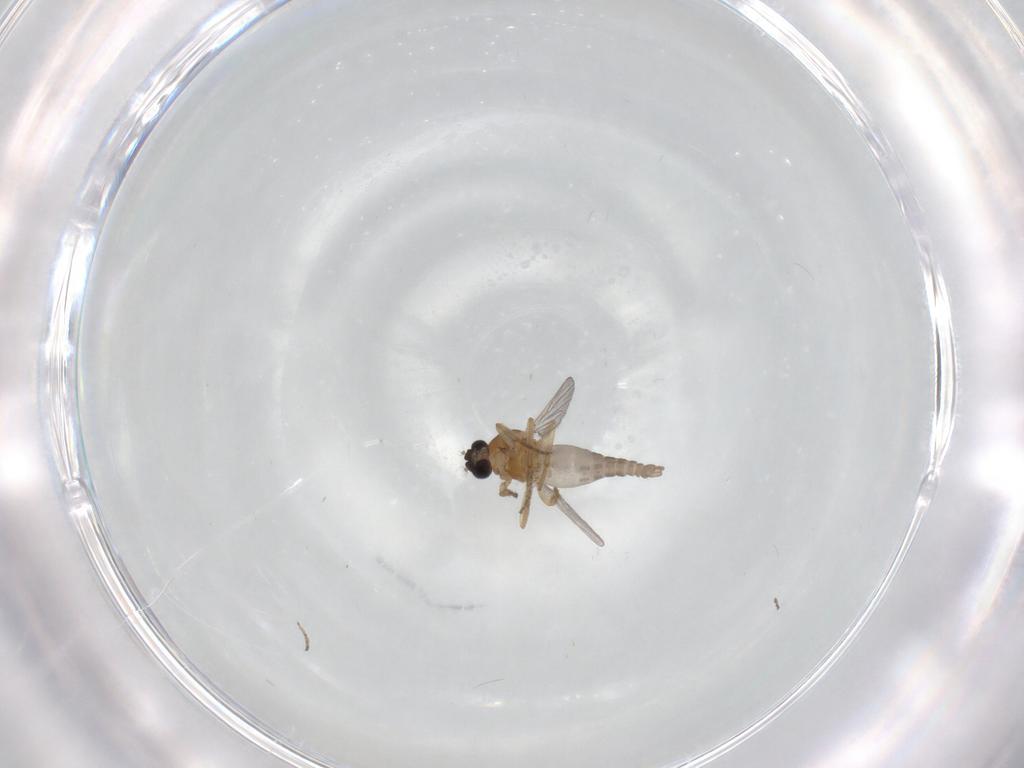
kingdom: Animalia
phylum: Arthropoda
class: Insecta
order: Diptera
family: Ceratopogonidae
